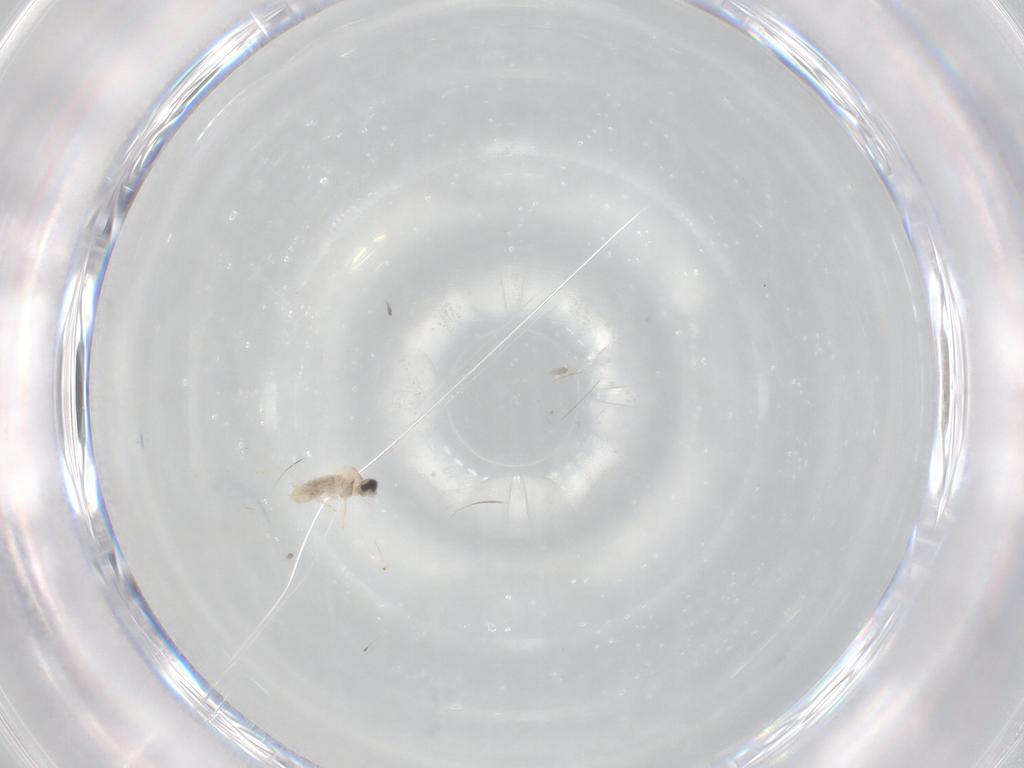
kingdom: Animalia
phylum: Arthropoda
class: Insecta
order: Diptera
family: Cecidomyiidae
